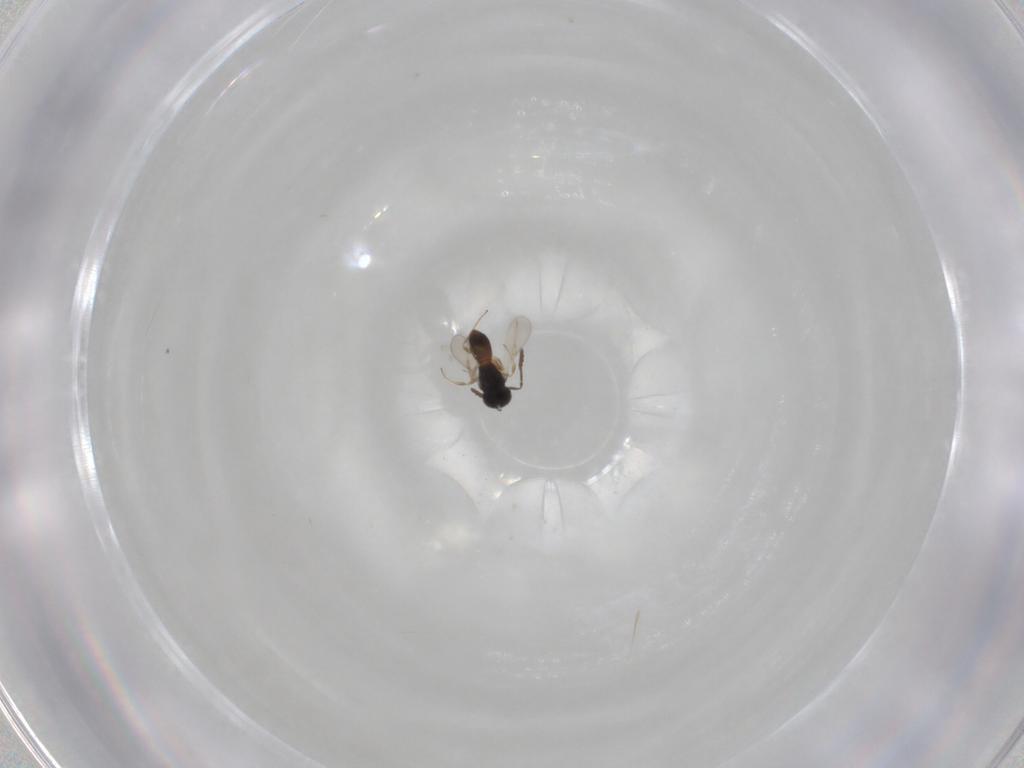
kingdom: Animalia
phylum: Arthropoda
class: Insecta
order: Hymenoptera
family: Scelionidae
